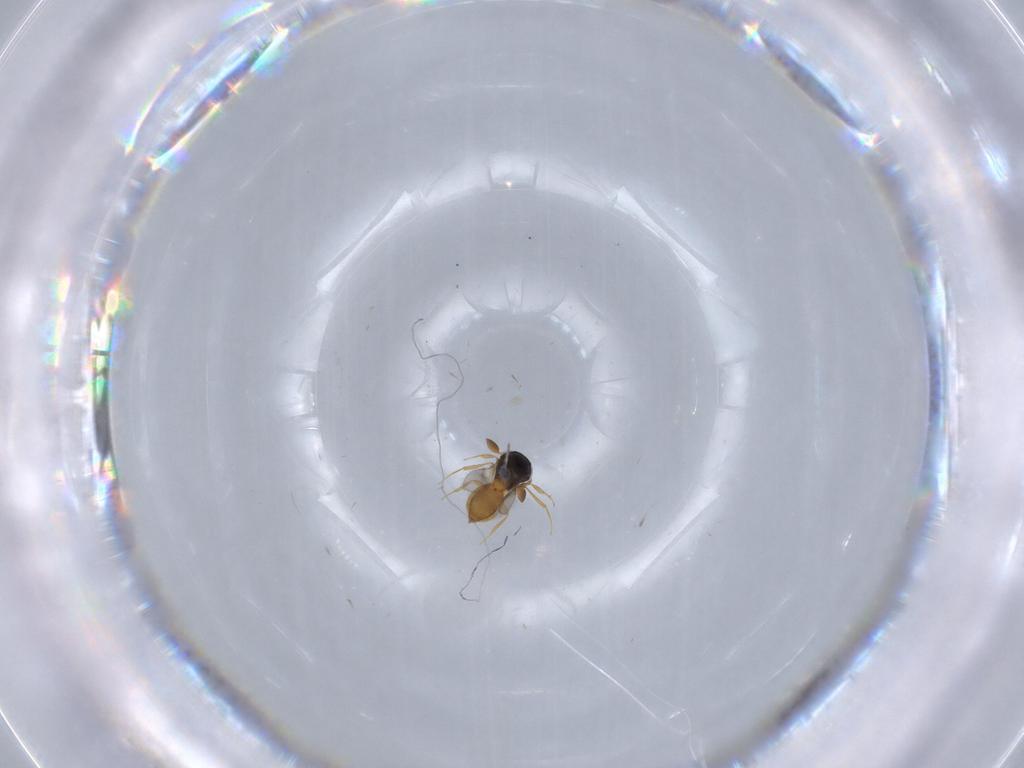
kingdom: Animalia
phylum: Arthropoda
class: Insecta
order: Hymenoptera
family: Scelionidae
